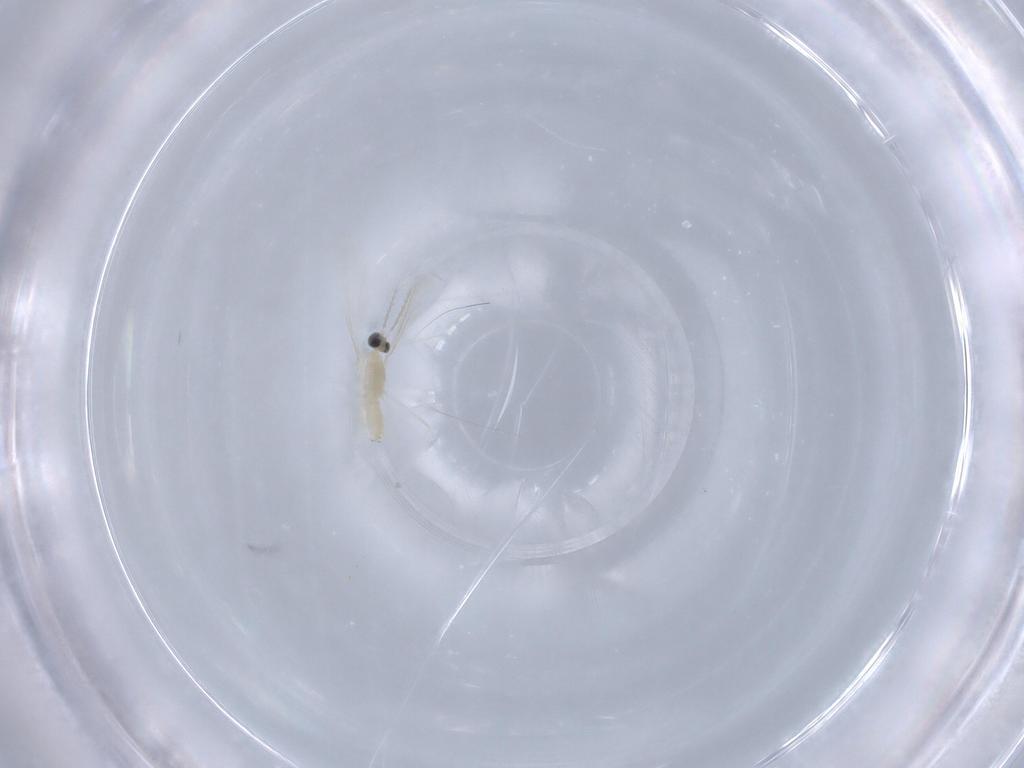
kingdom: Animalia
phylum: Arthropoda
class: Insecta
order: Diptera
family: Cecidomyiidae
